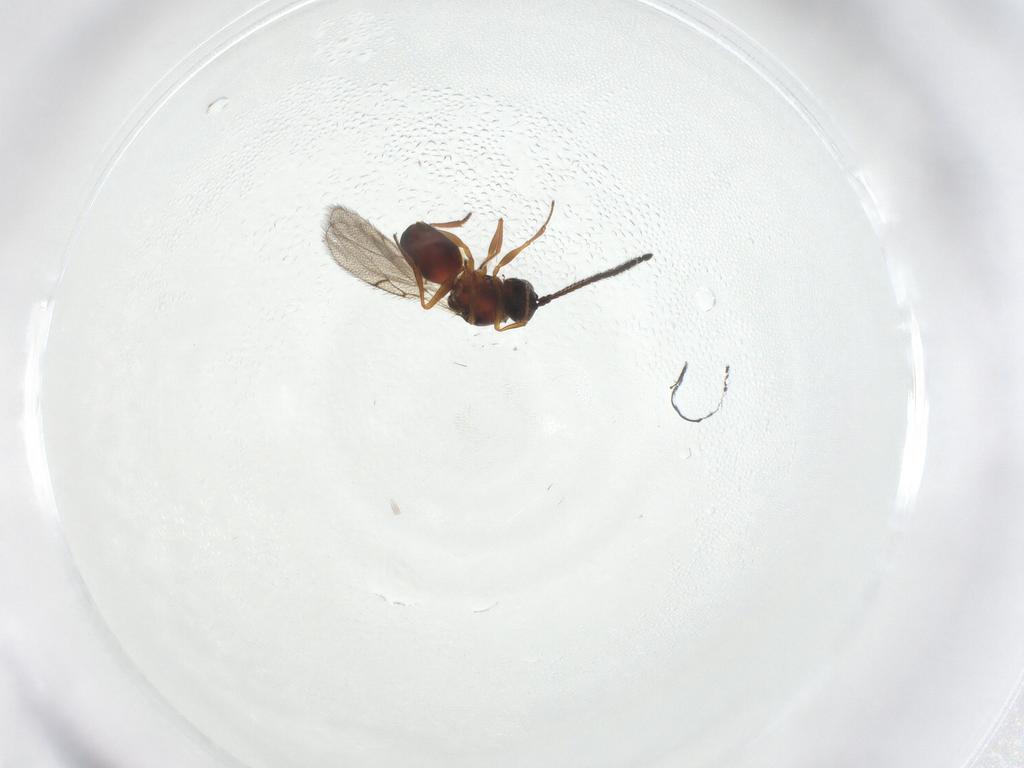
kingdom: Animalia
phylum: Arthropoda
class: Insecta
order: Hymenoptera
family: Figitidae
